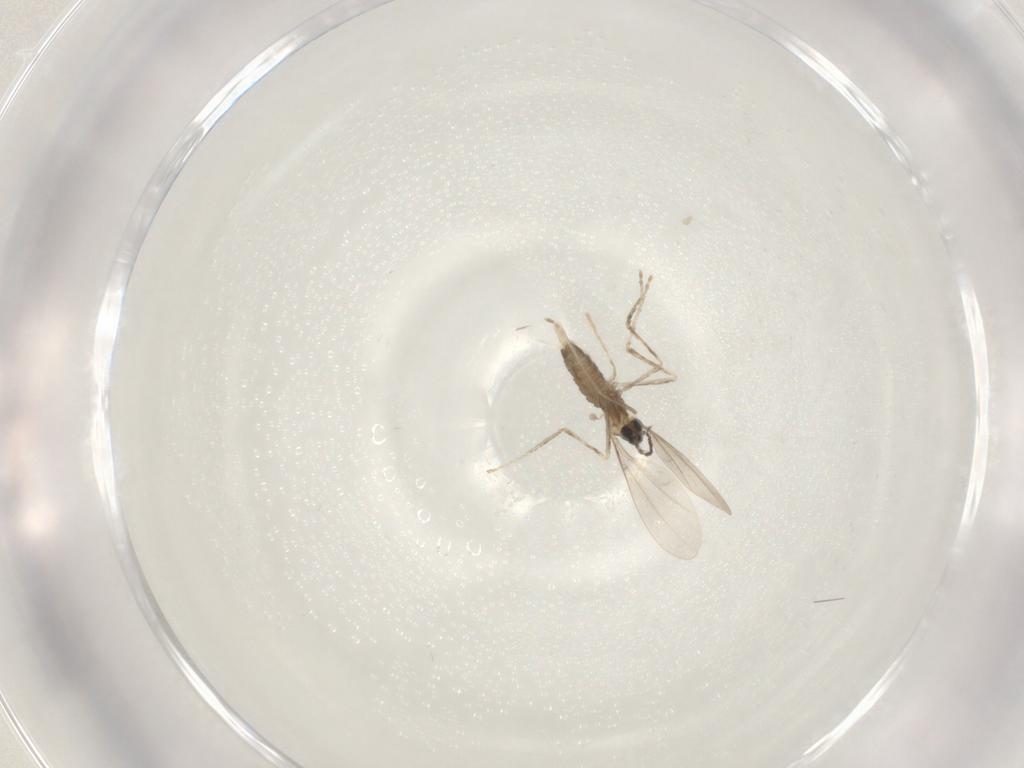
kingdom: Animalia
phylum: Arthropoda
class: Insecta
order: Diptera
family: Cecidomyiidae
